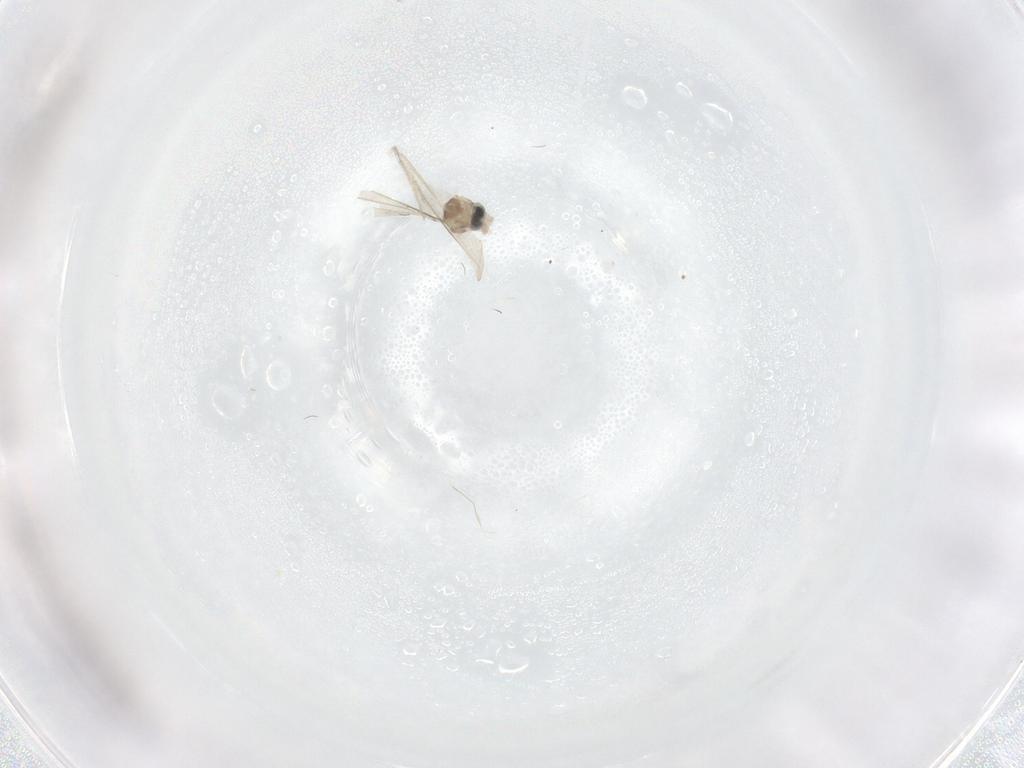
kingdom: Animalia
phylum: Arthropoda
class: Insecta
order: Diptera
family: Cecidomyiidae
